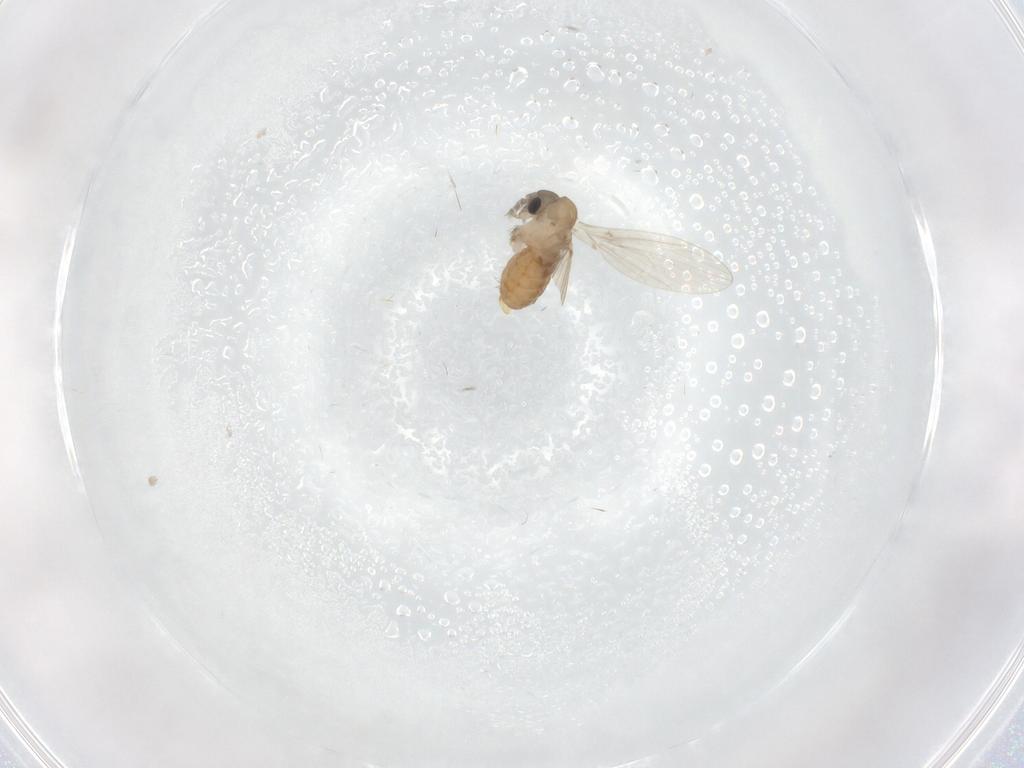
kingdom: Animalia
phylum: Arthropoda
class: Insecta
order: Diptera
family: Psychodidae
